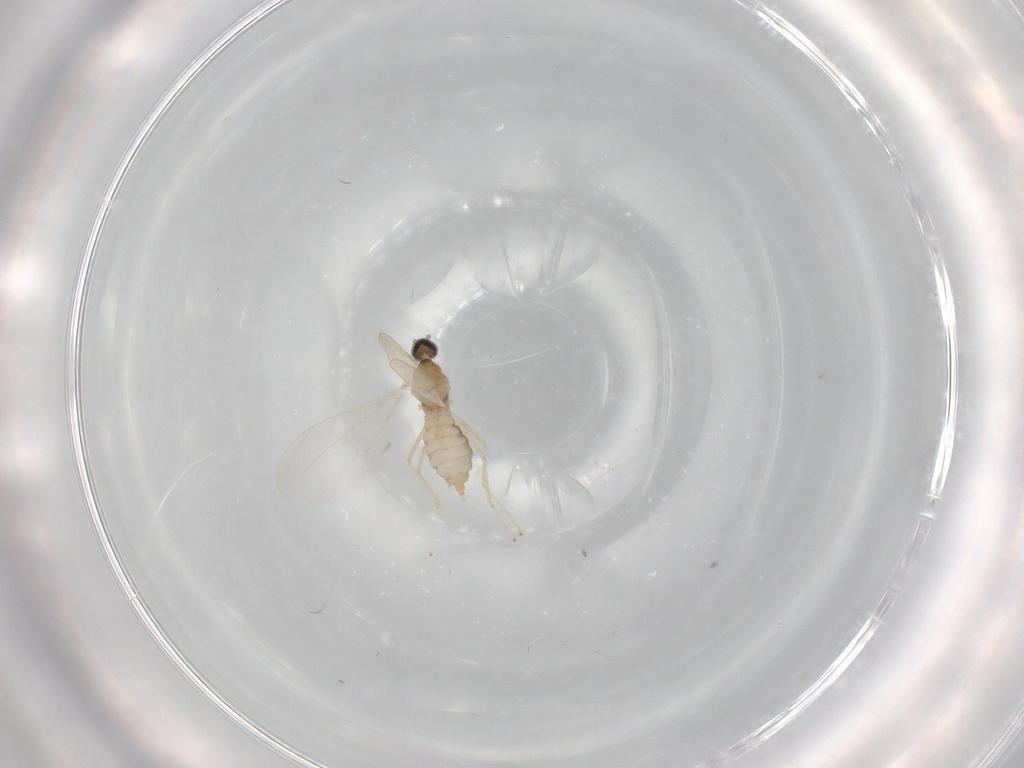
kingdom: Animalia
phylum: Arthropoda
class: Insecta
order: Diptera
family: Cecidomyiidae
